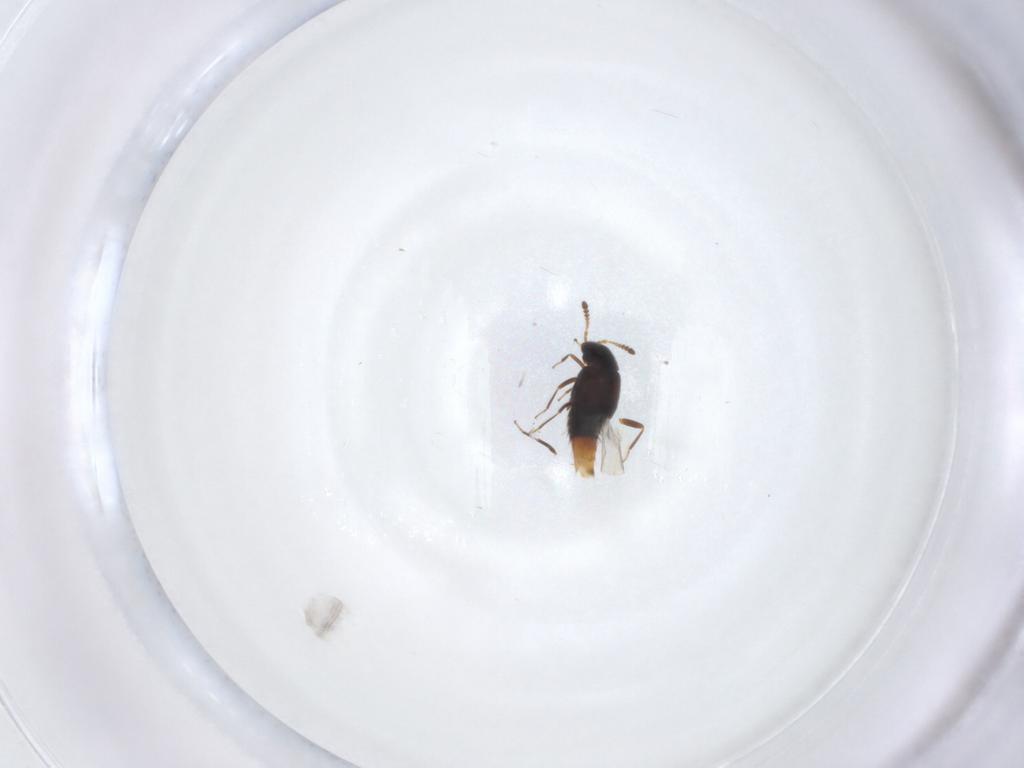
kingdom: Animalia
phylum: Arthropoda
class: Insecta
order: Coleoptera
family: Staphylinidae
